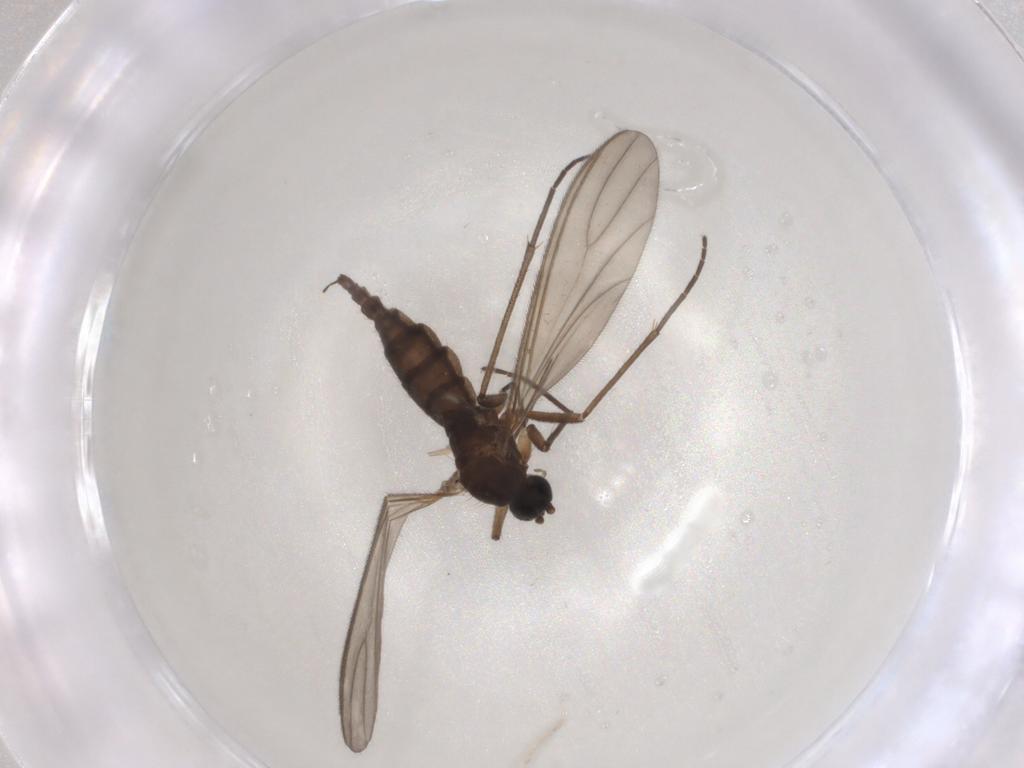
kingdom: Animalia
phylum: Arthropoda
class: Insecta
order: Diptera
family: Sciaridae
